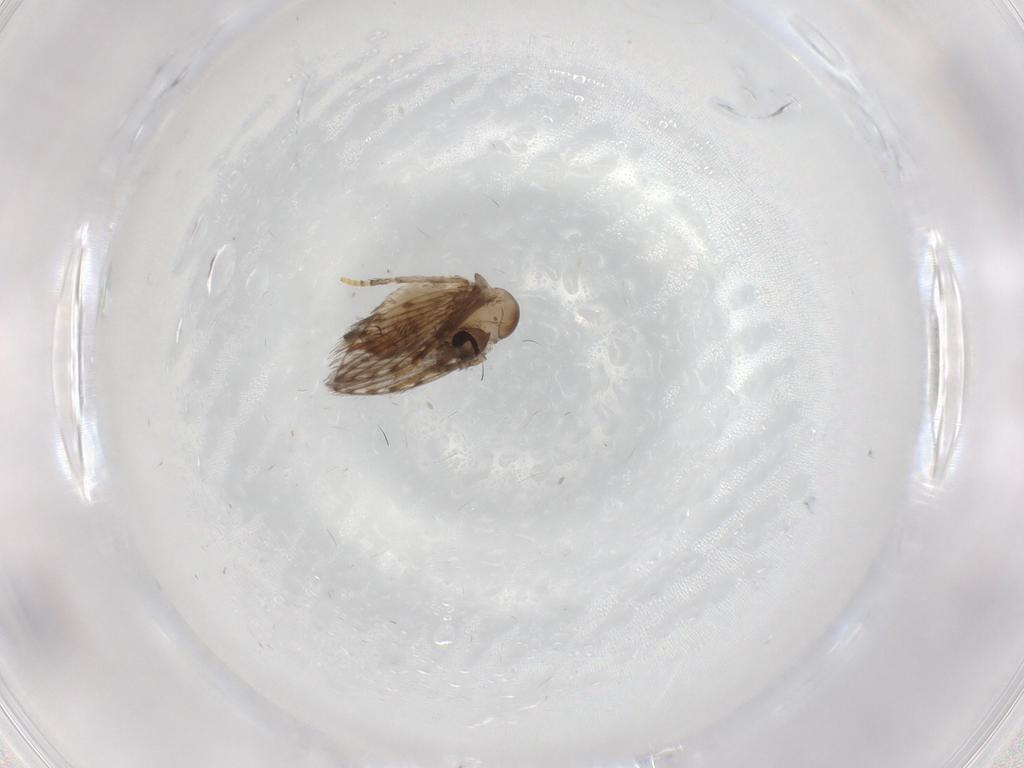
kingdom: Animalia
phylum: Arthropoda
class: Insecta
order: Diptera
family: Psychodidae
